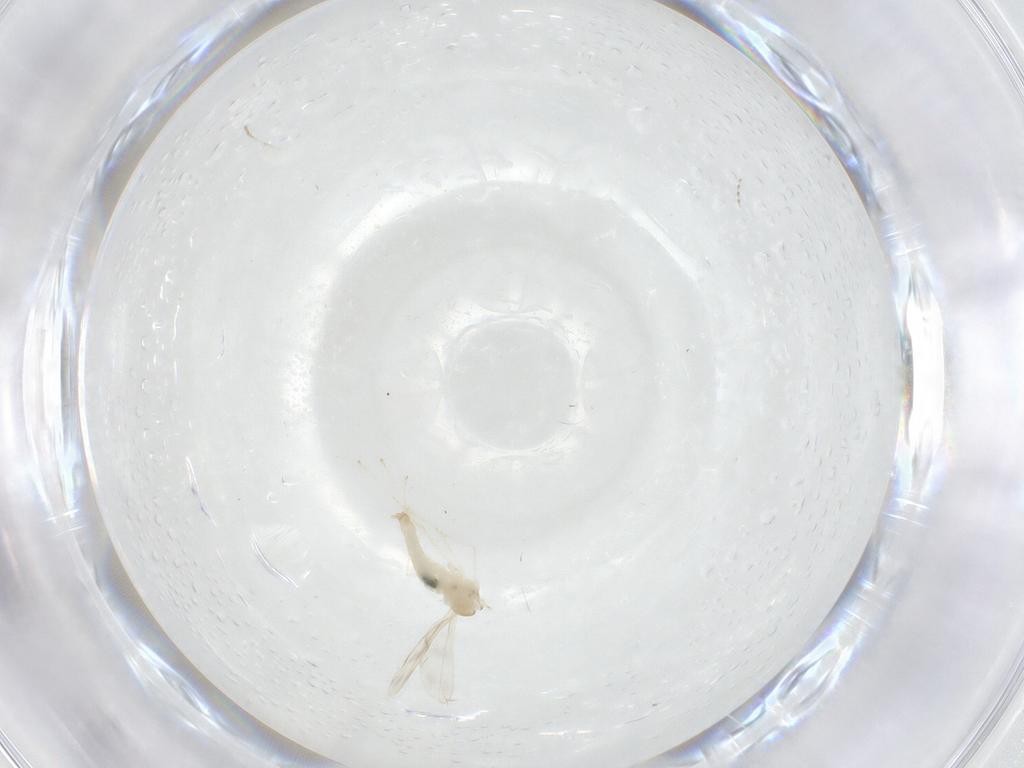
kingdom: Animalia
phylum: Arthropoda
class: Insecta
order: Diptera
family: Cecidomyiidae
